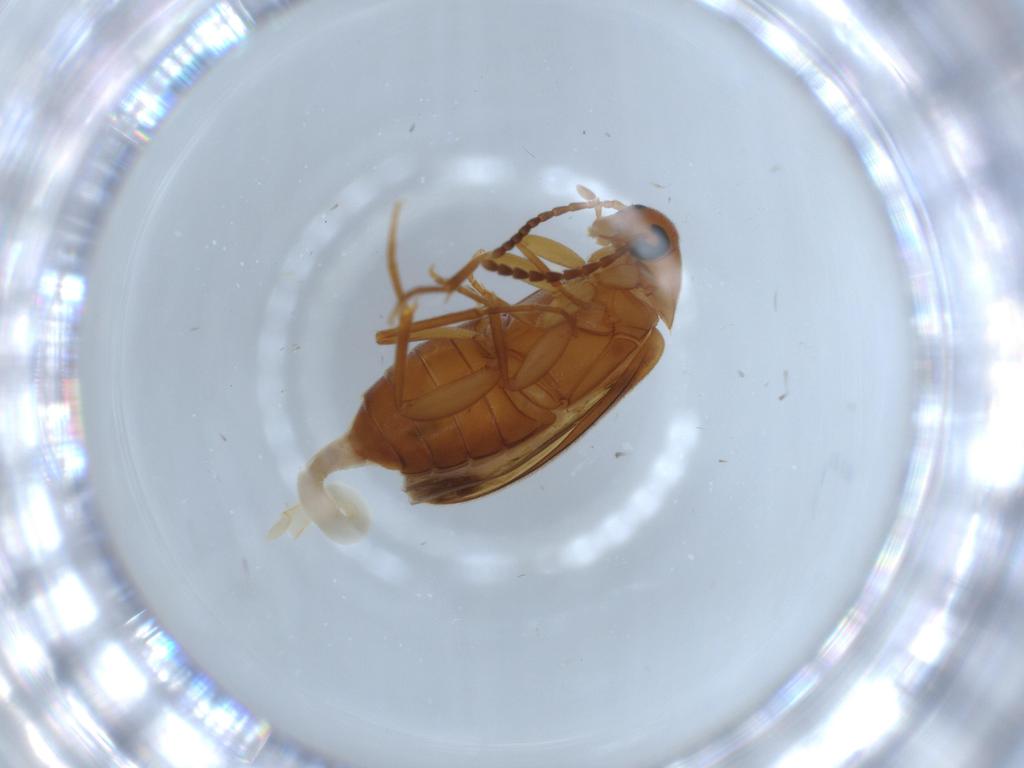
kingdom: Animalia
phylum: Arthropoda
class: Insecta
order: Coleoptera
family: Scraptiidae
